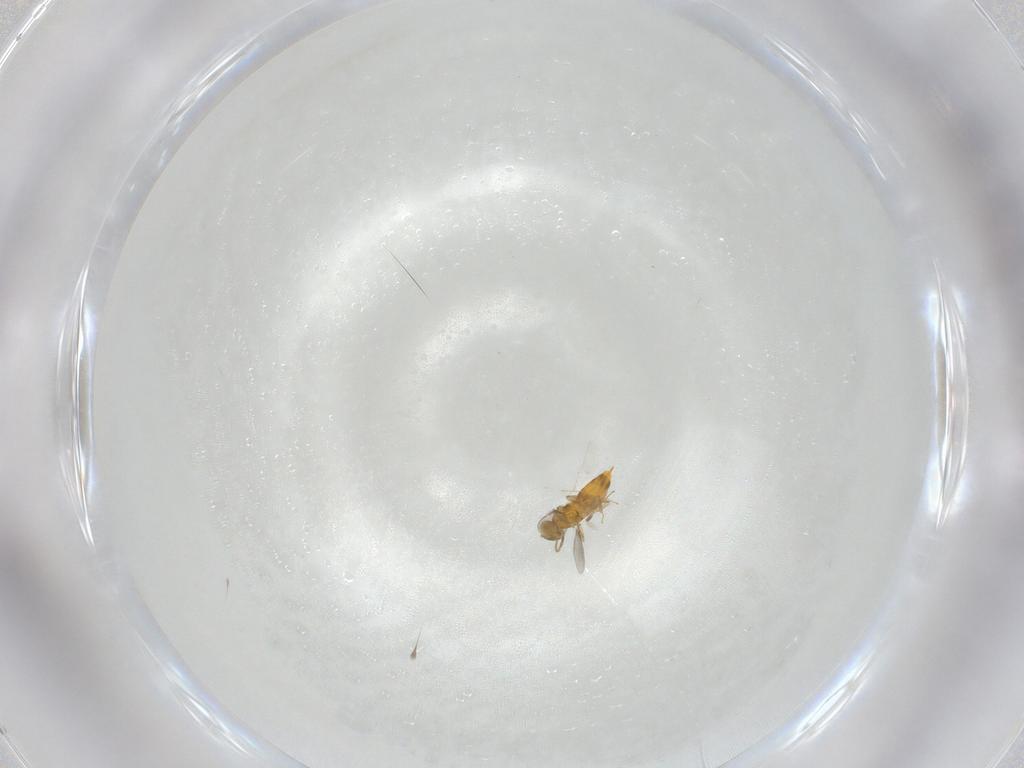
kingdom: Animalia
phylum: Arthropoda
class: Insecta
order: Hymenoptera
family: Aphelinidae
